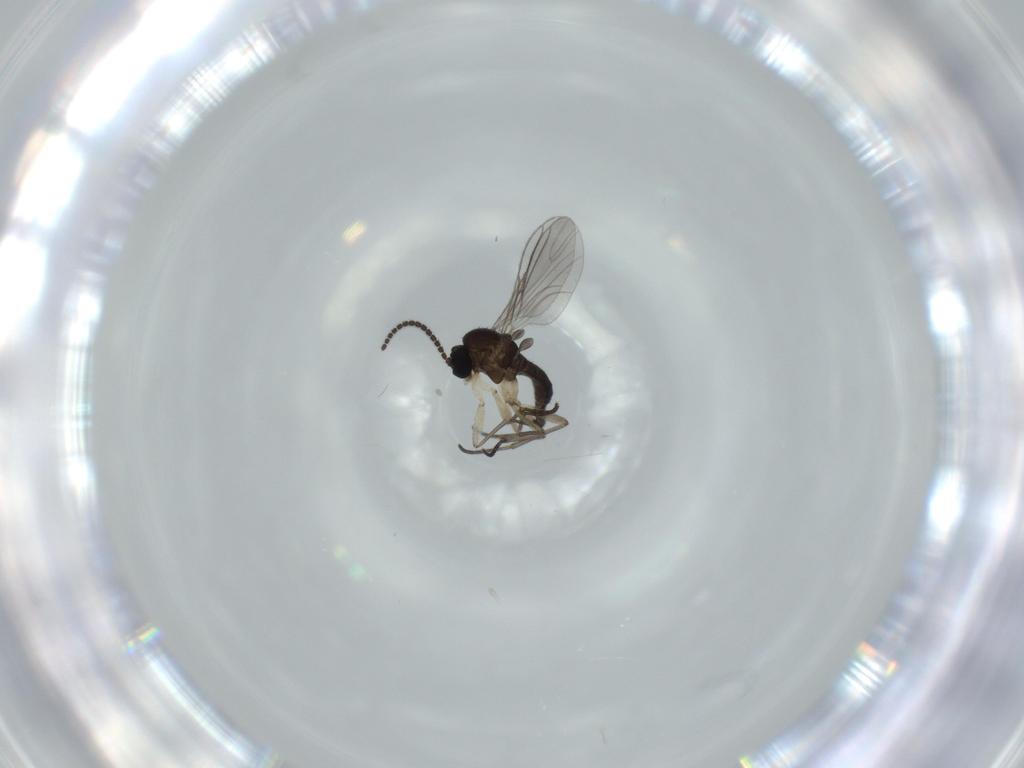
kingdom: Animalia
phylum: Arthropoda
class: Insecta
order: Diptera
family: Sciaridae
